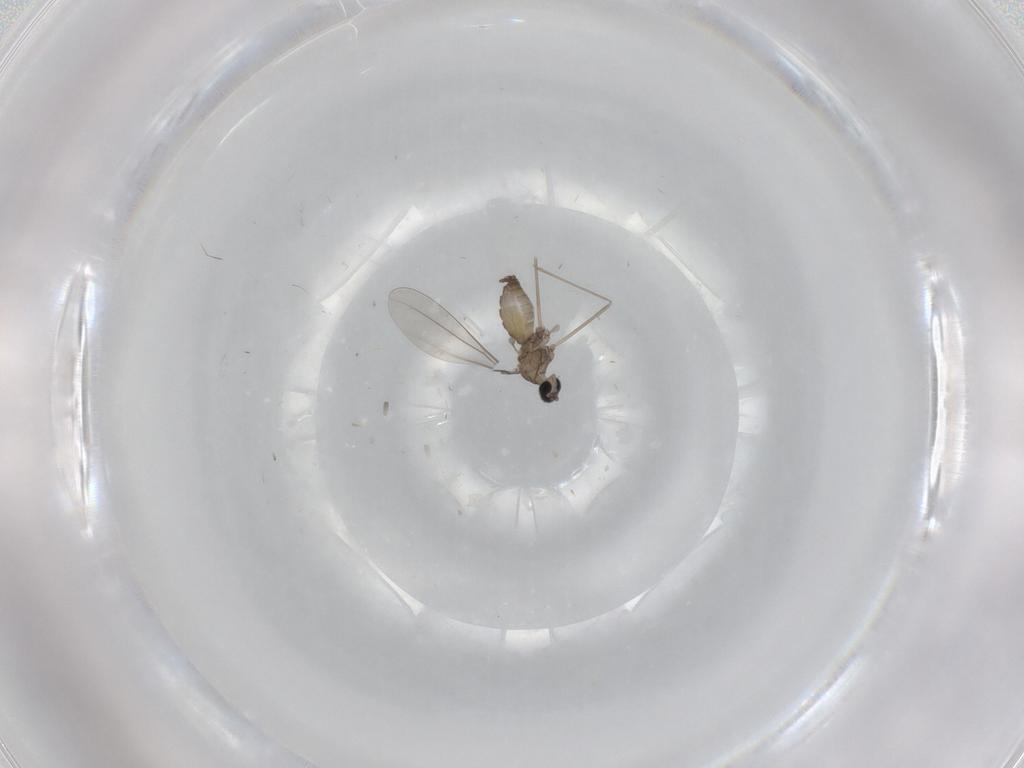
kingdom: Animalia
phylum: Arthropoda
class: Insecta
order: Diptera
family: Cecidomyiidae
